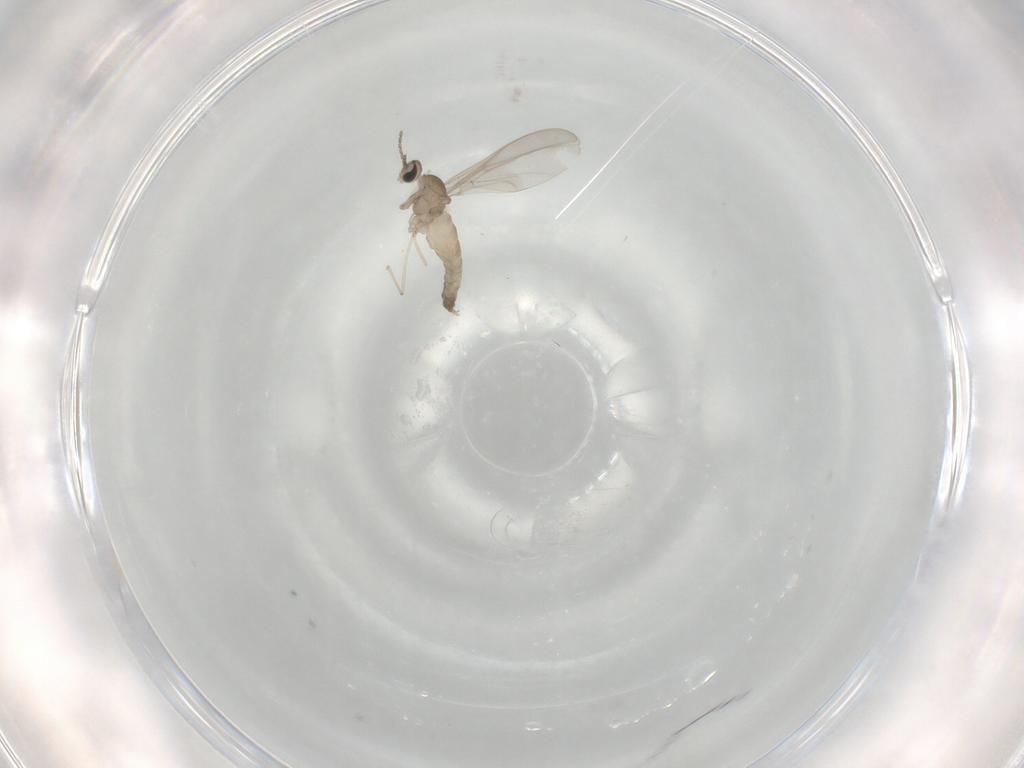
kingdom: Animalia
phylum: Arthropoda
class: Insecta
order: Diptera
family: Cecidomyiidae
